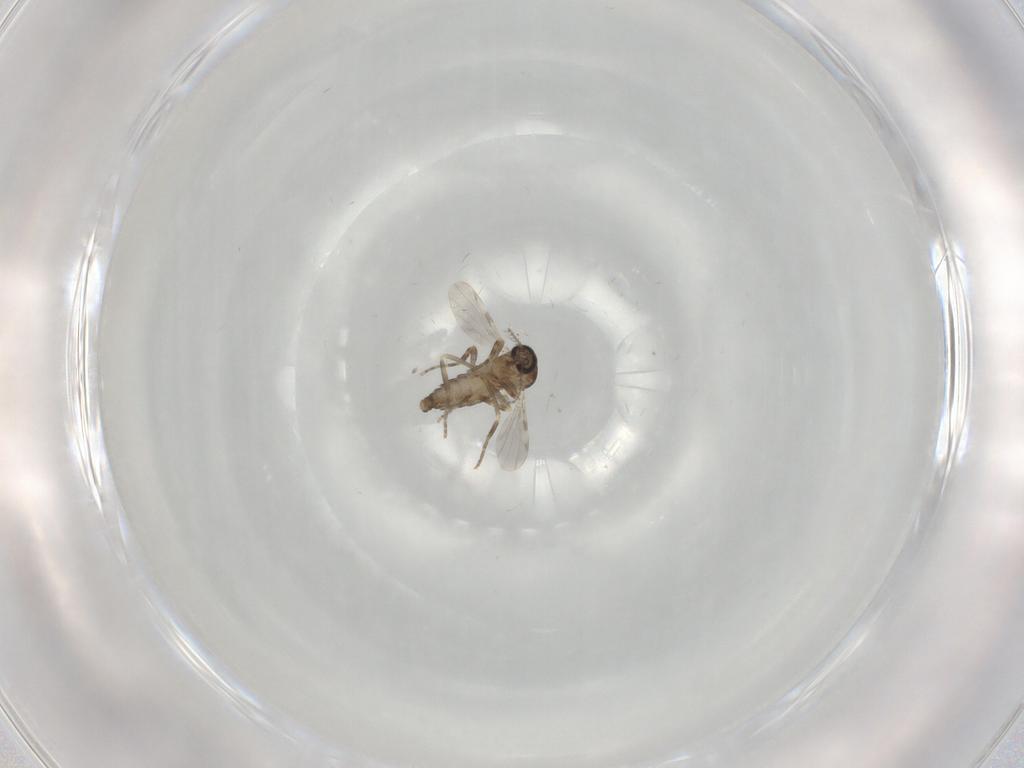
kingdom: Animalia
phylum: Arthropoda
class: Insecta
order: Diptera
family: Ceratopogonidae
